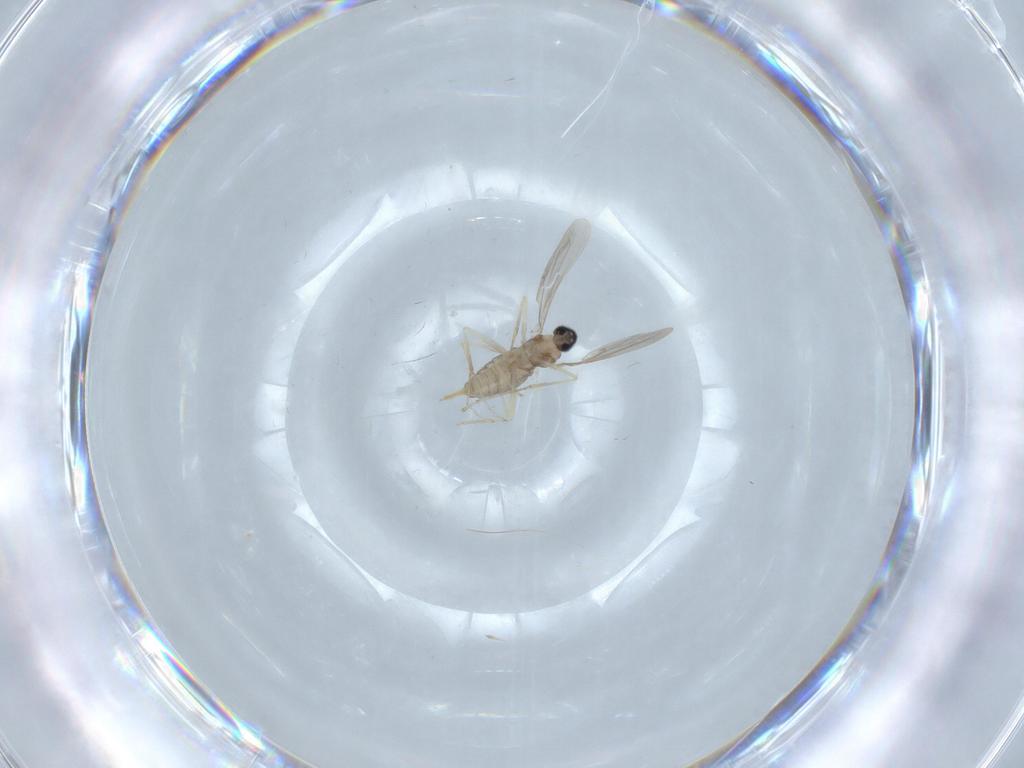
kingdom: Animalia
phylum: Arthropoda
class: Insecta
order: Diptera
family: Cecidomyiidae
